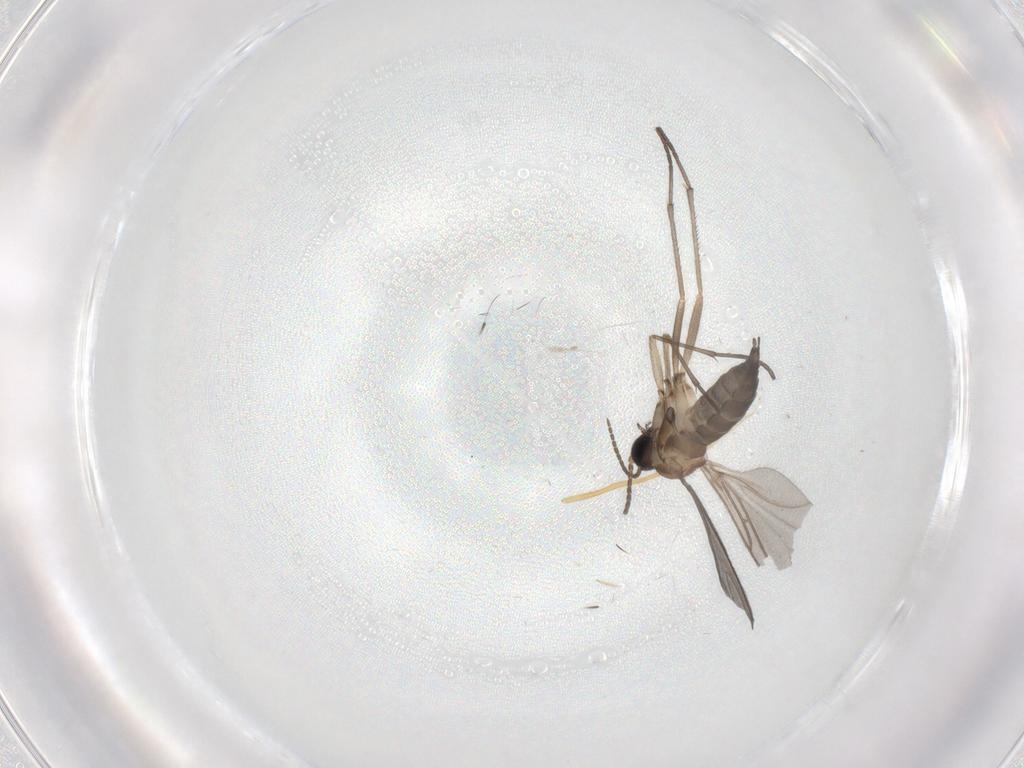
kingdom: Animalia
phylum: Arthropoda
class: Insecta
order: Diptera
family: Sciaridae
